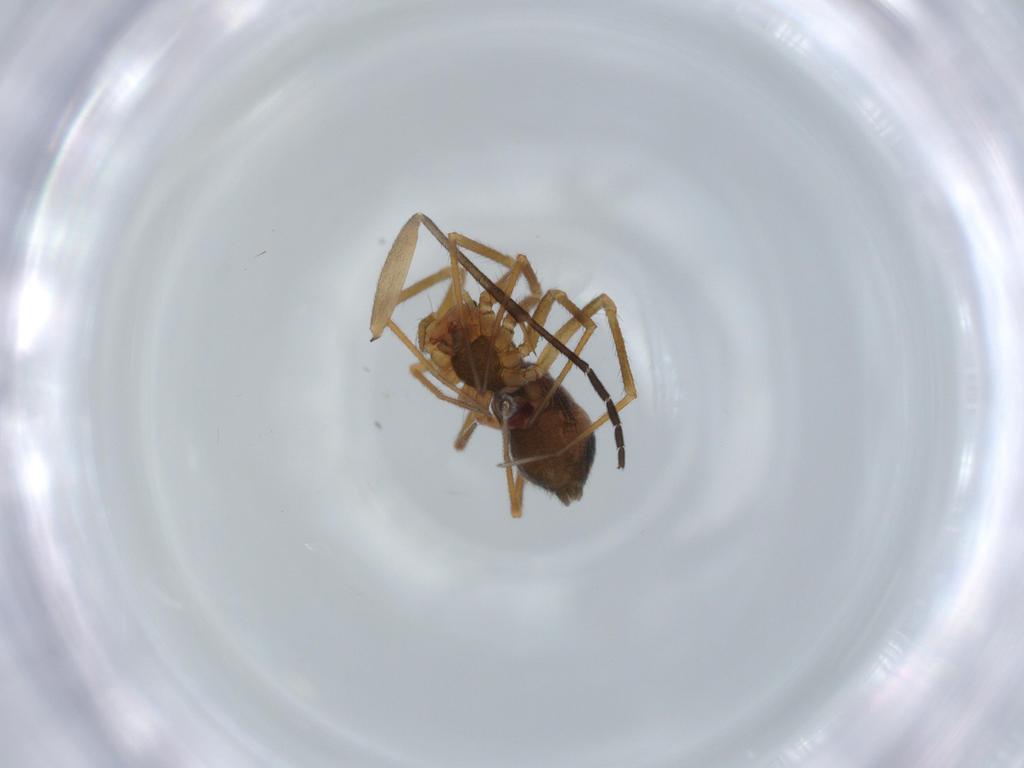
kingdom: Animalia
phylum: Arthropoda
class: Arachnida
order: Araneae
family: Linyphiidae
